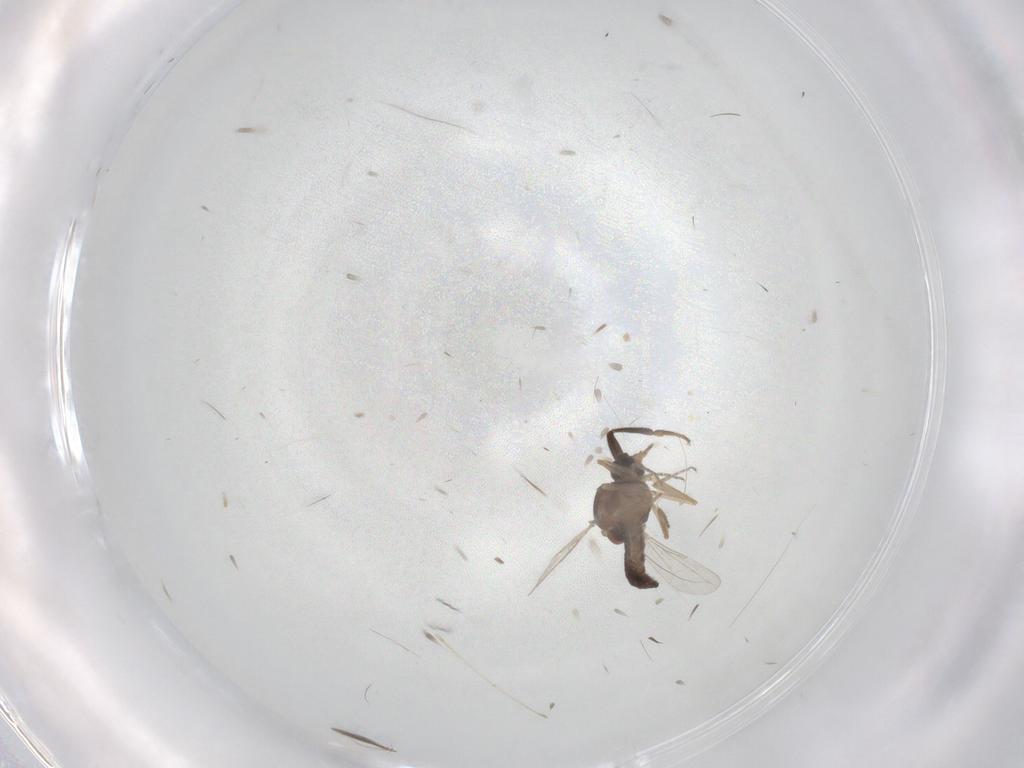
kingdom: Animalia
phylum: Arthropoda
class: Insecta
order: Diptera
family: Ceratopogonidae
